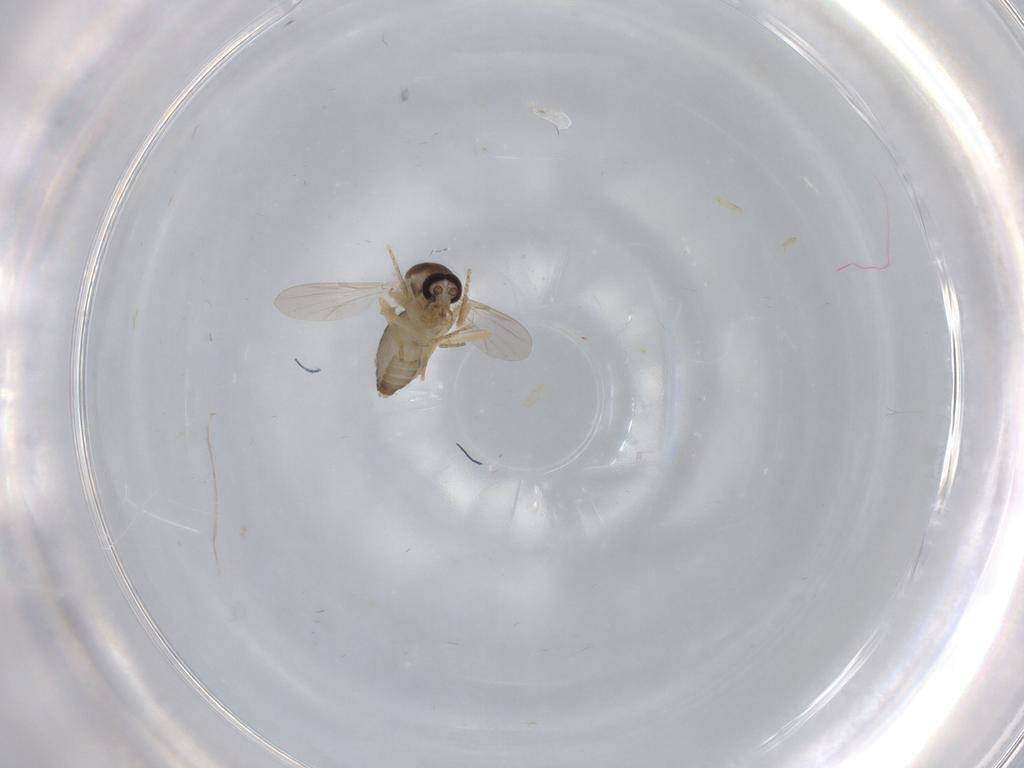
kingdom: Animalia
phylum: Arthropoda
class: Insecta
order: Diptera
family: Ceratopogonidae
